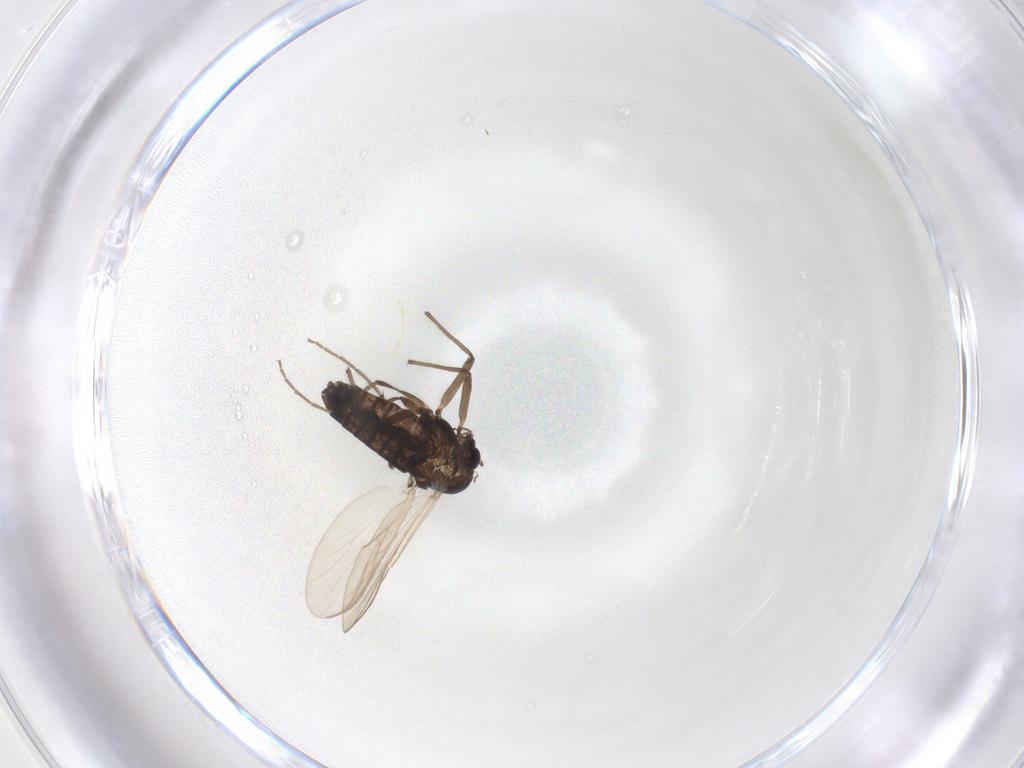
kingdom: Animalia
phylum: Arthropoda
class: Insecta
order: Diptera
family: Chironomidae
